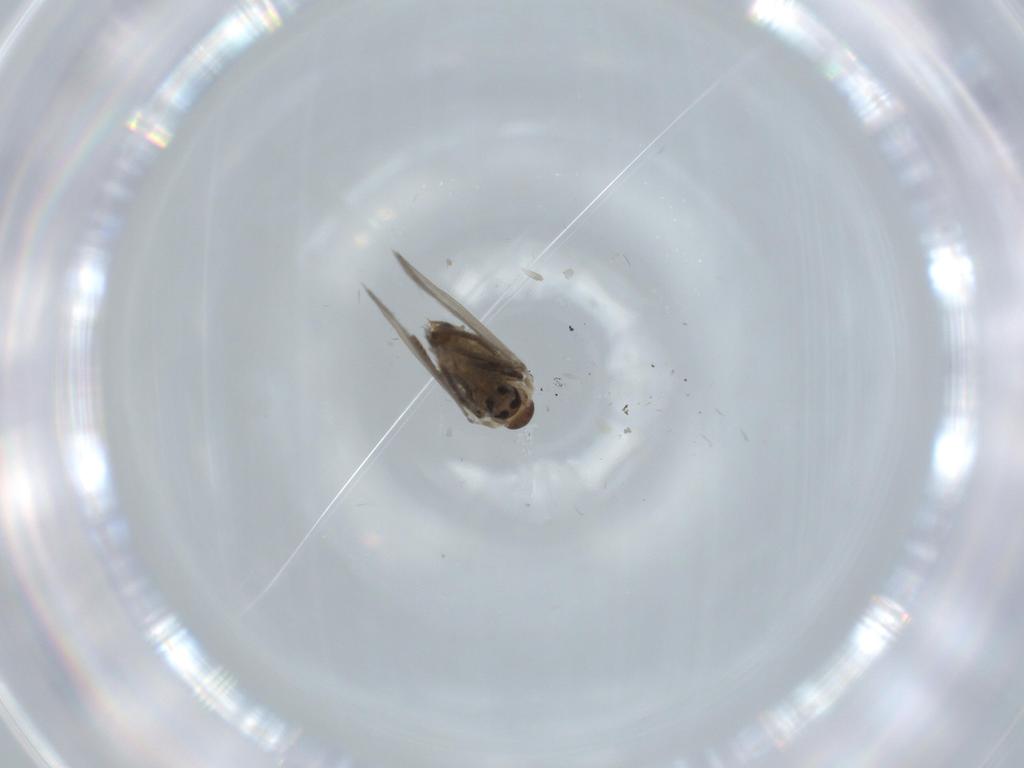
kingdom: Animalia
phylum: Arthropoda
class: Insecta
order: Diptera
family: Psychodidae
